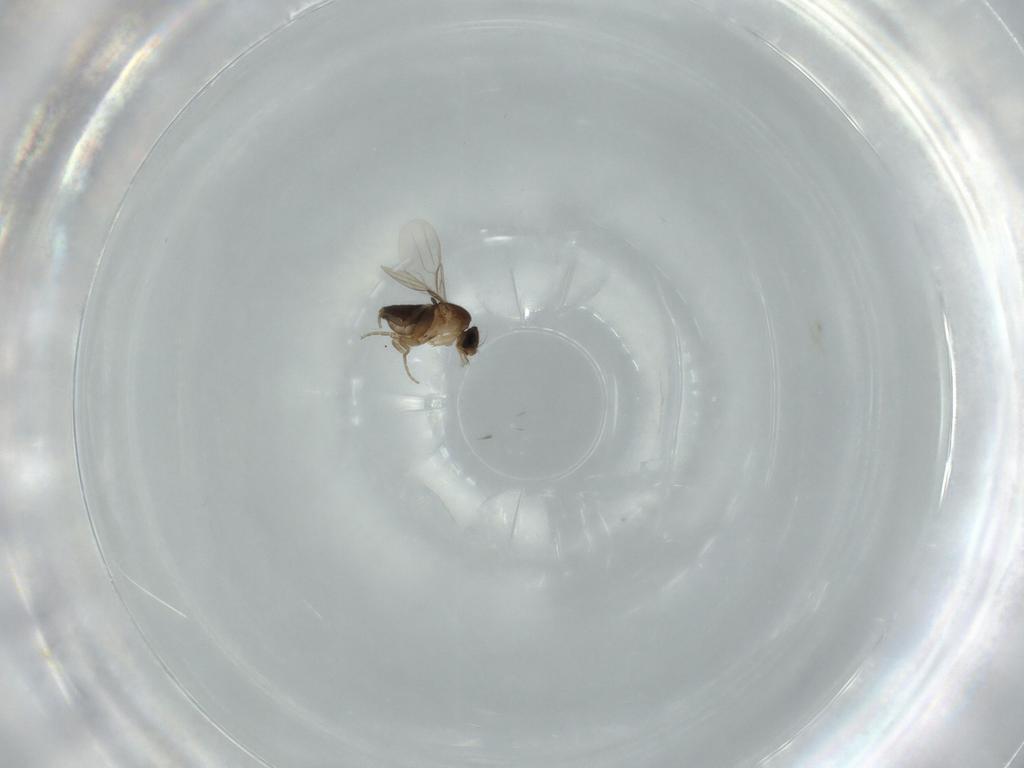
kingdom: Animalia
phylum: Arthropoda
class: Insecta
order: Diptera
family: Phoridae
